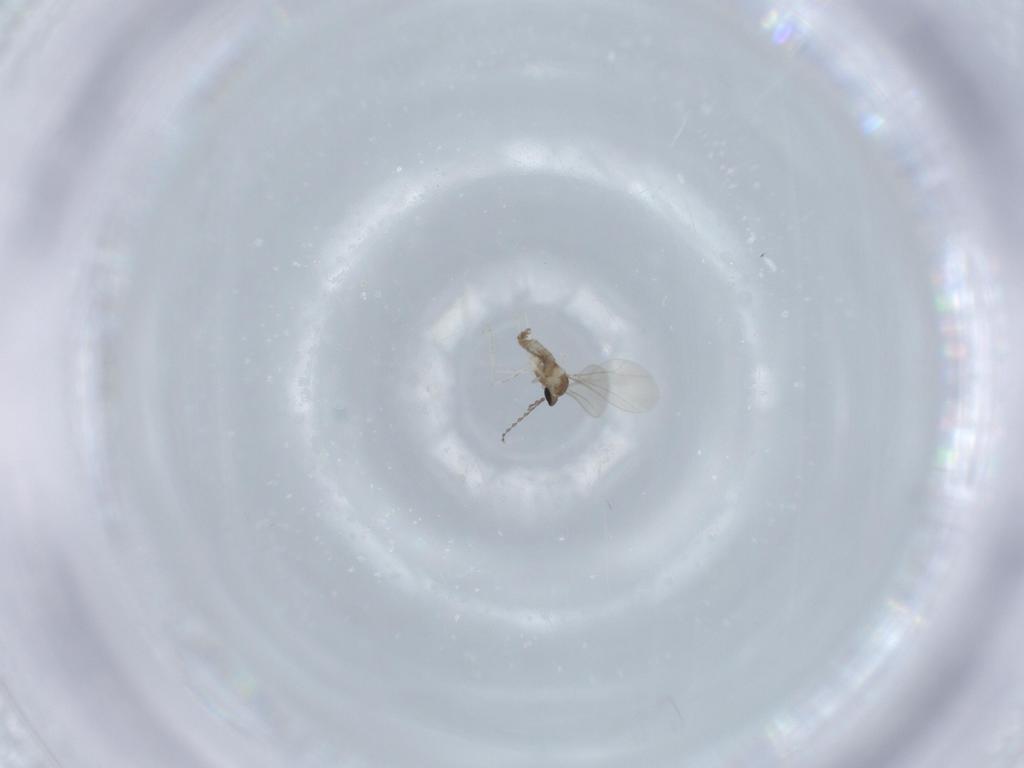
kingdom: Animalia
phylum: Arthropoda
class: Insecta
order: Diptera
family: Cecidomyiidae
